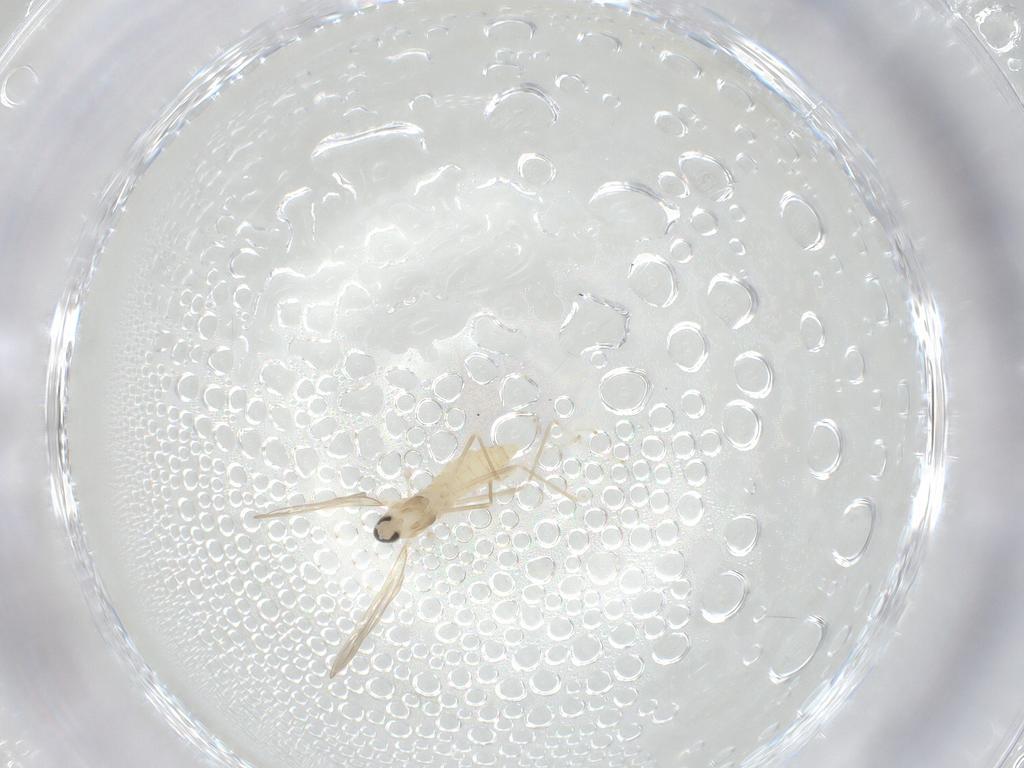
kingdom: Animalia
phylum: Arthropoda
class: Insecta
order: Diptera
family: Cecidomyiidae
